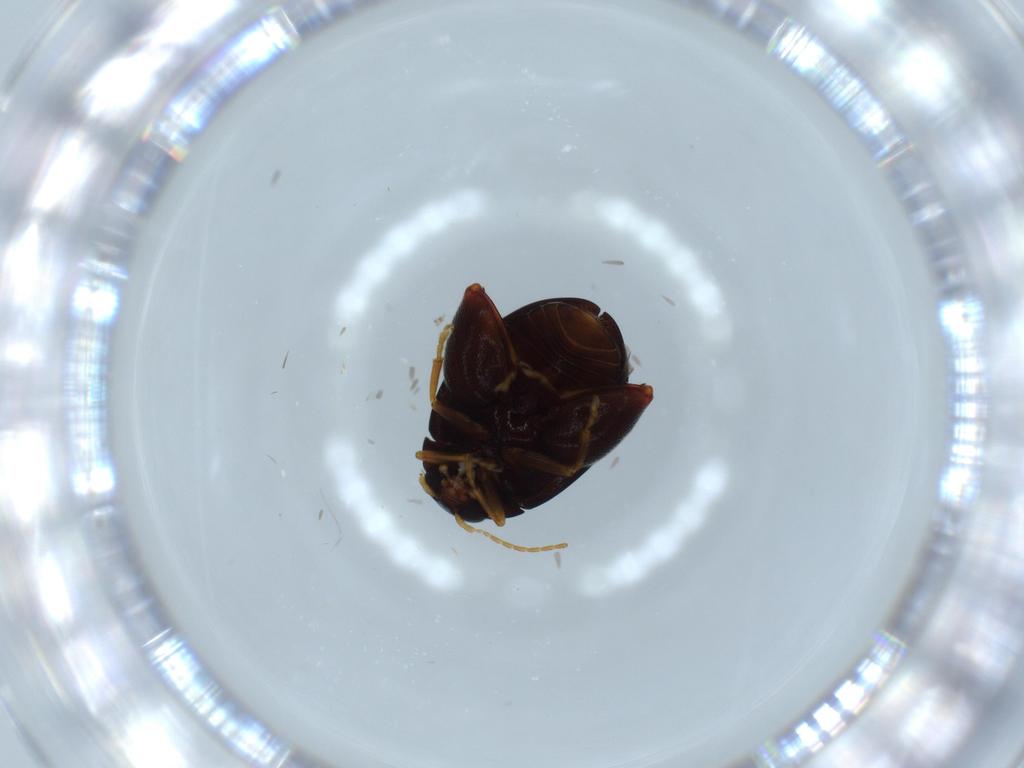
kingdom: Animalia
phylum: Arthropoda
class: Insecta
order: Coleoptera
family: Chrysomelidae
